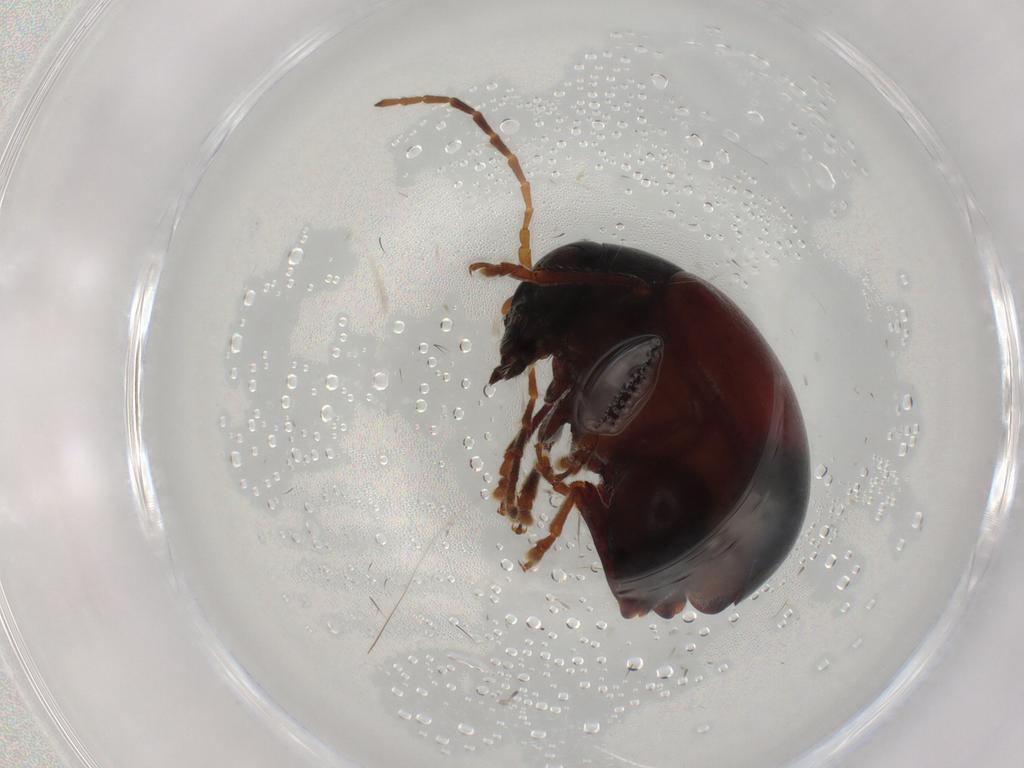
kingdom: Animalia
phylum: Arthropoda
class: Insecta
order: Coleoptera
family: Chrysomelidae
